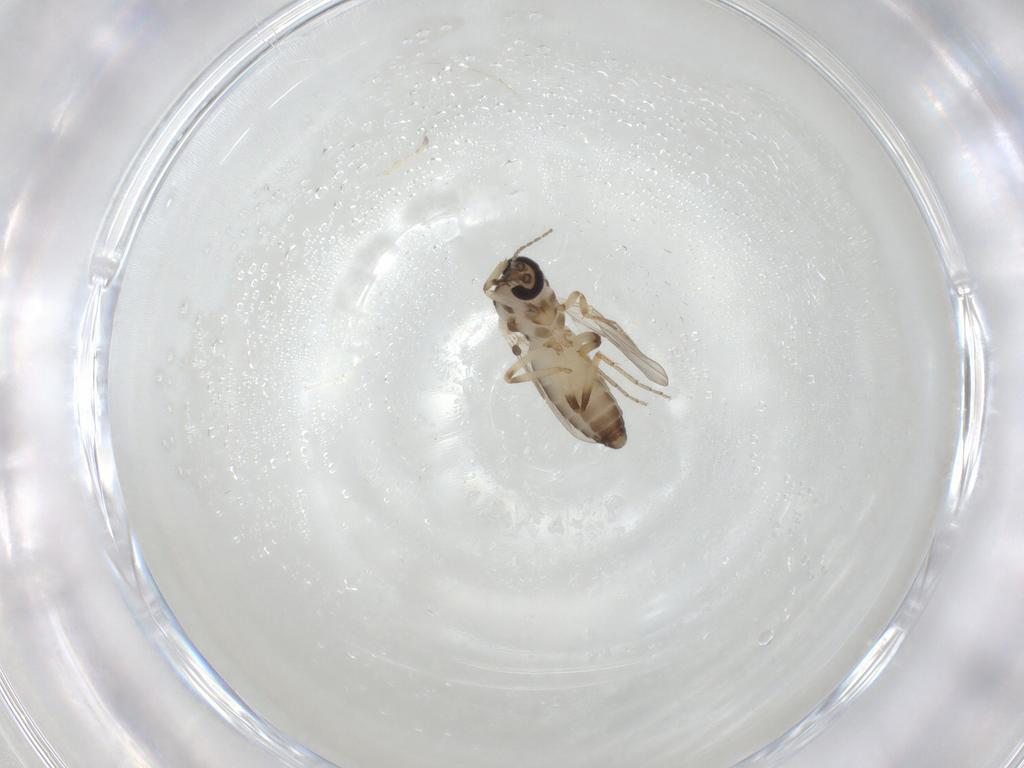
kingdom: Animalia
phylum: Arthropoda
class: Insecta
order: Diptera
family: Ceratopogonidae
